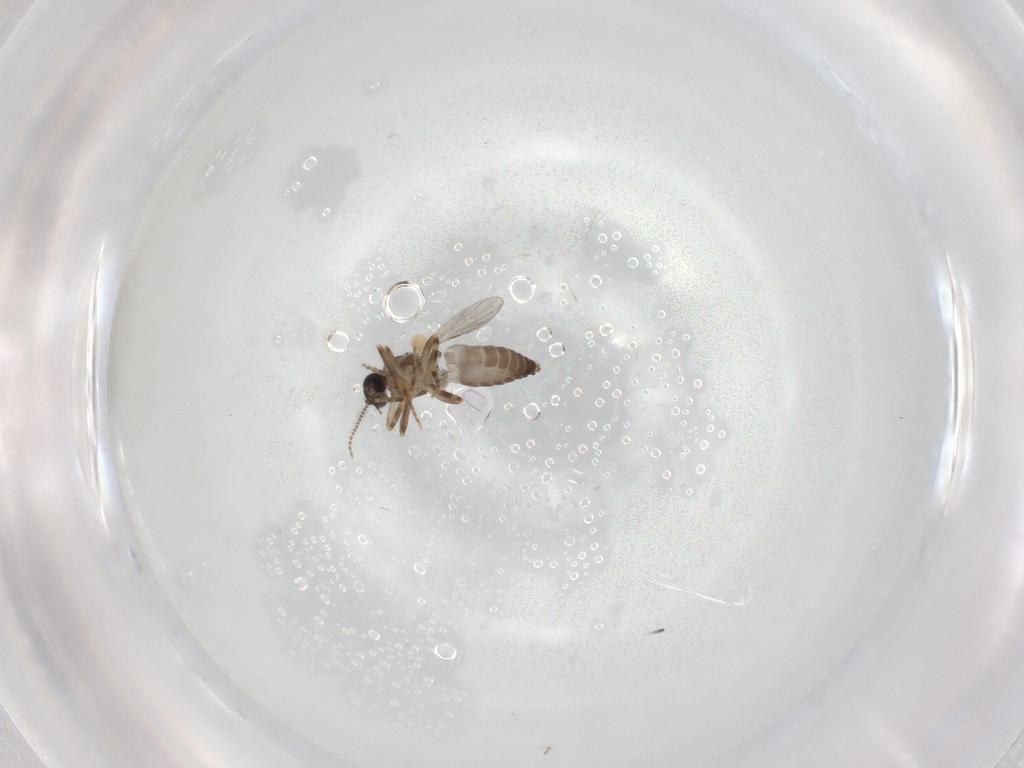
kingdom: Animalia
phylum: Arthropoda
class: Insecta
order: Diptera
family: Ceratopogonidae
